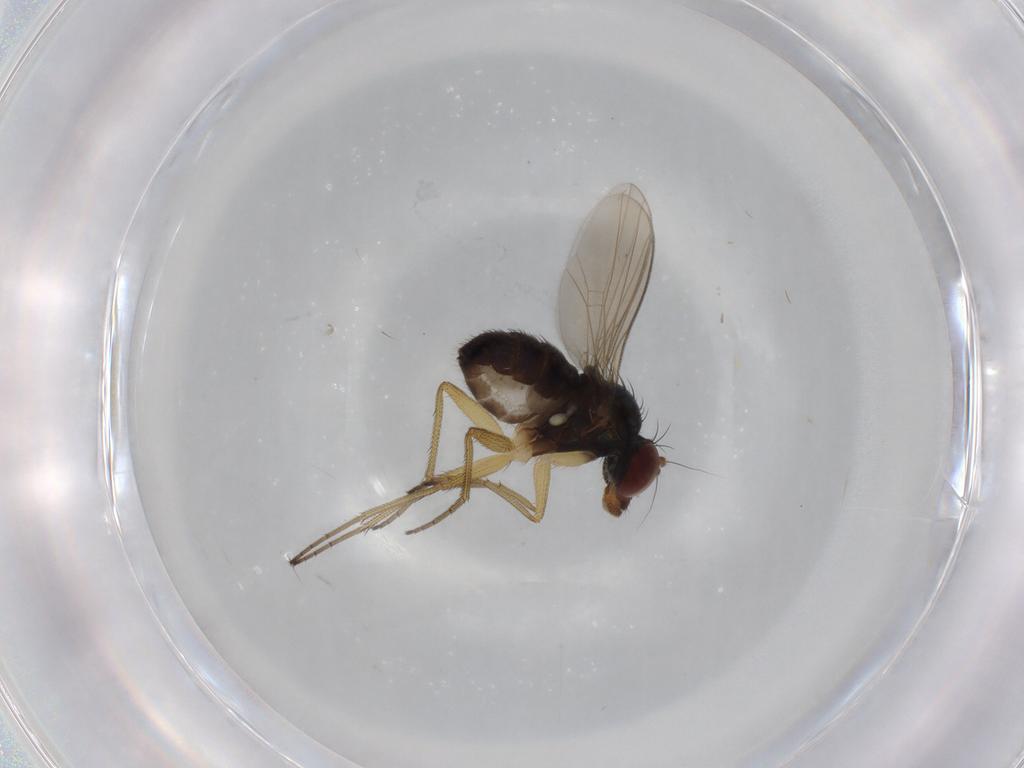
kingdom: Animalia
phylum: Arthropoda
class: Insecta
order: Diptera
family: Dolichopodidae
